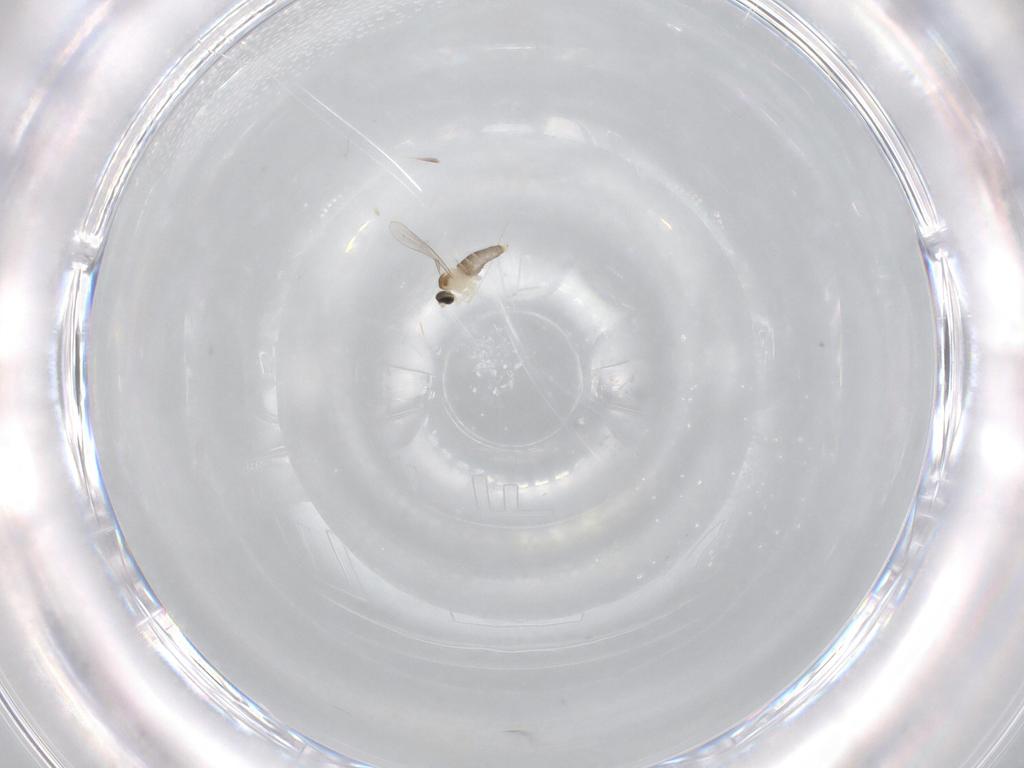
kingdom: Animalia
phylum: Arthropoda
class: Insecta
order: Diptera
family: Cecidomyiidae
